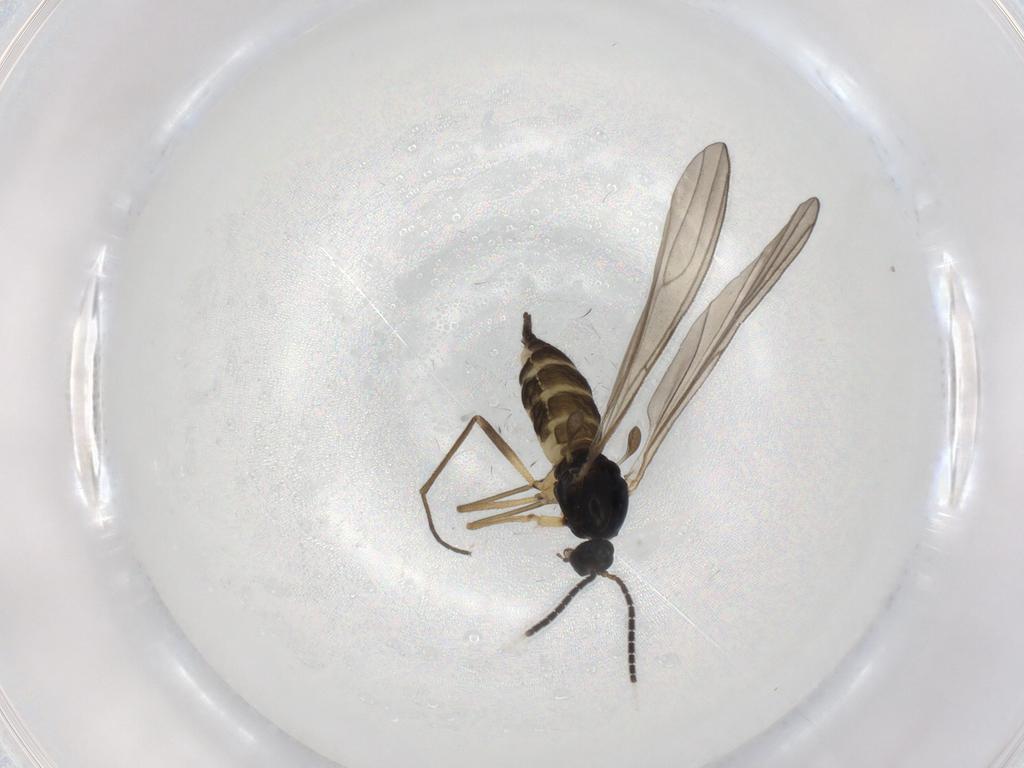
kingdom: Animalia
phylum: Arthropoda
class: Insecta
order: Diptera
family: Sciaridae
